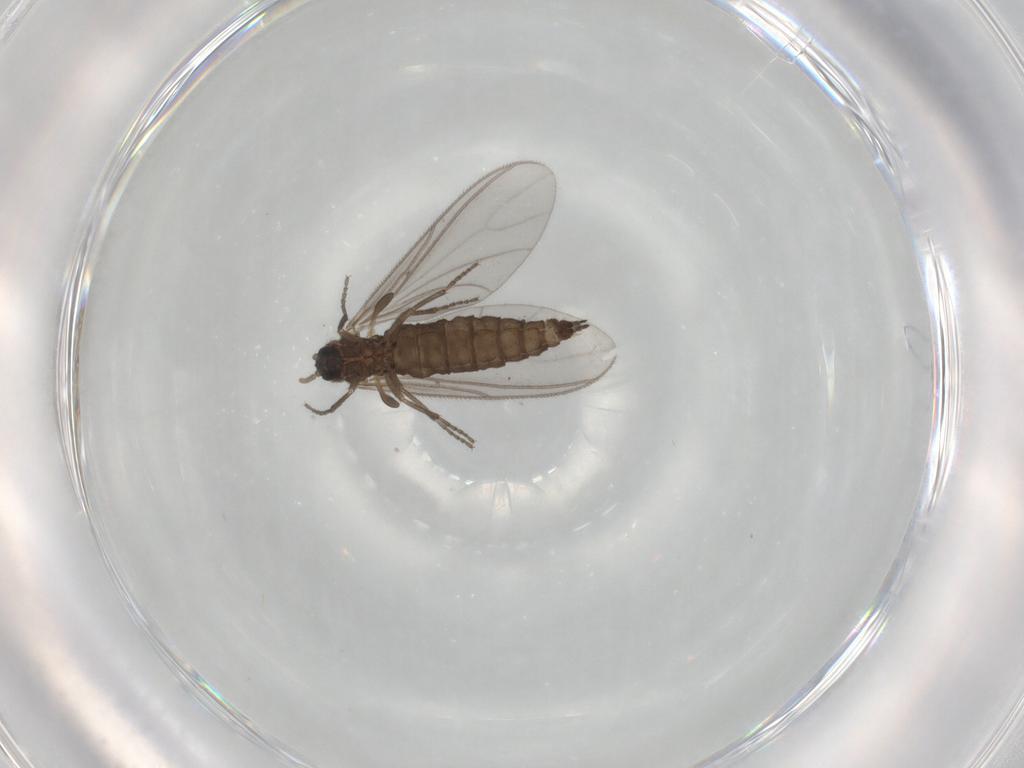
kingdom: Animalia
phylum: Arthropoda
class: Insecta
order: Diptera
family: Sciaridae
